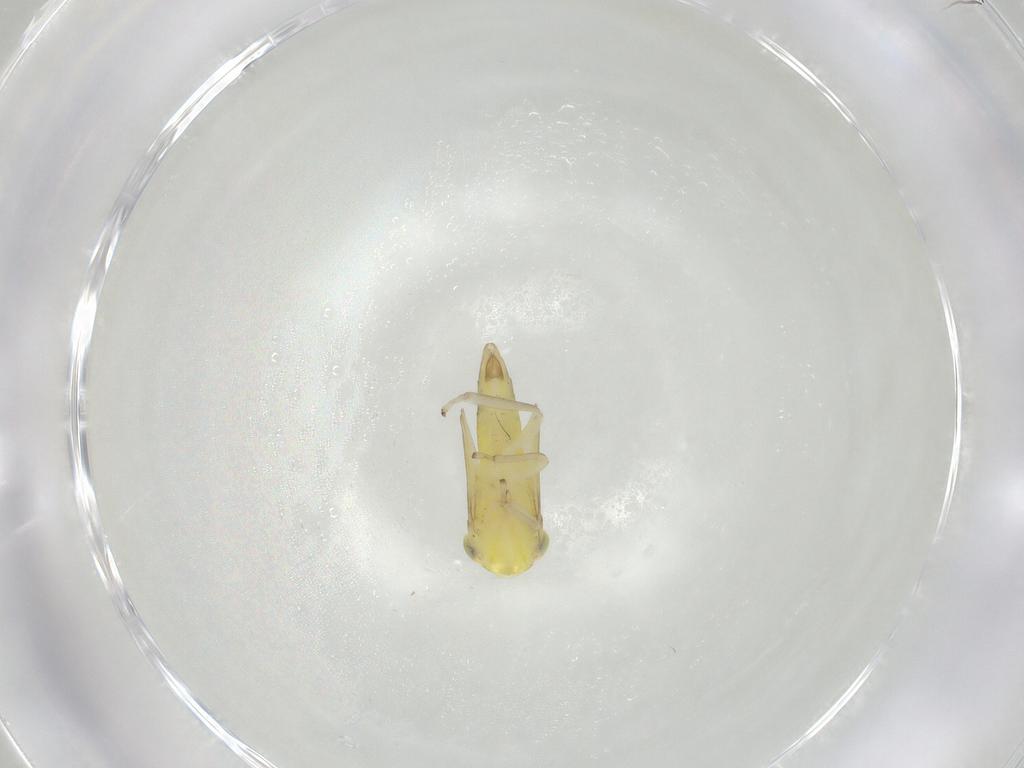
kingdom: Animalia
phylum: Arthropoda
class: Insecta
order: Hemiptera
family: Cicadellidae
